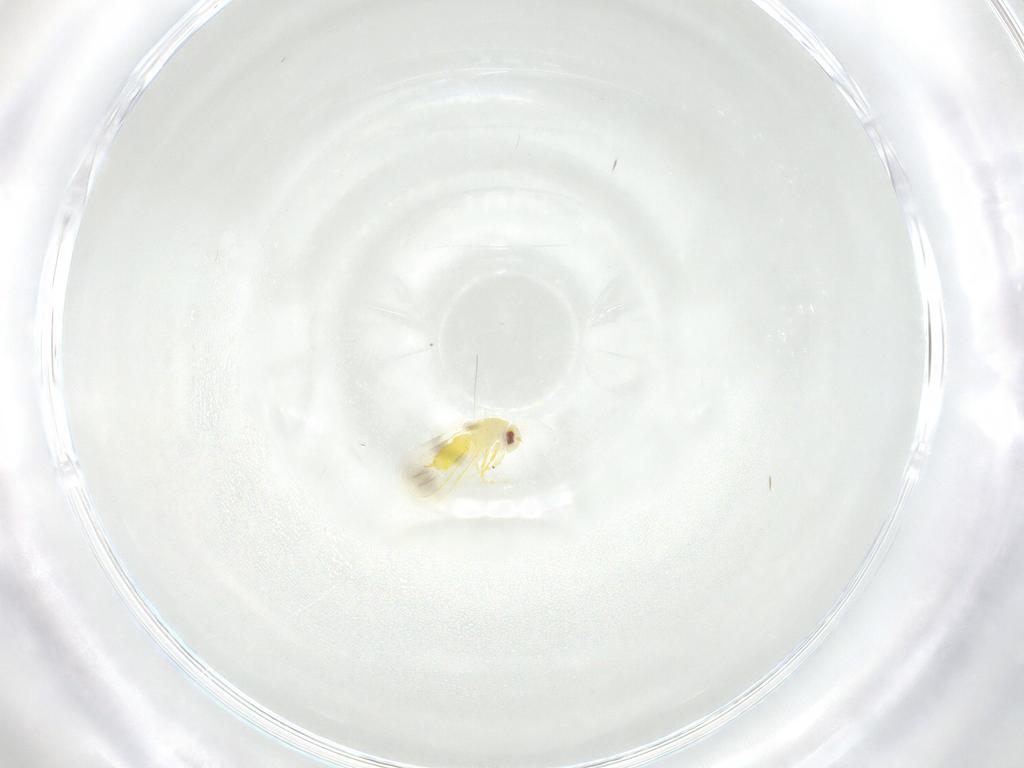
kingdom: Animalia
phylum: Arthropoda
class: Insecta
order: Hemiptera
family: Aleyrodidae
